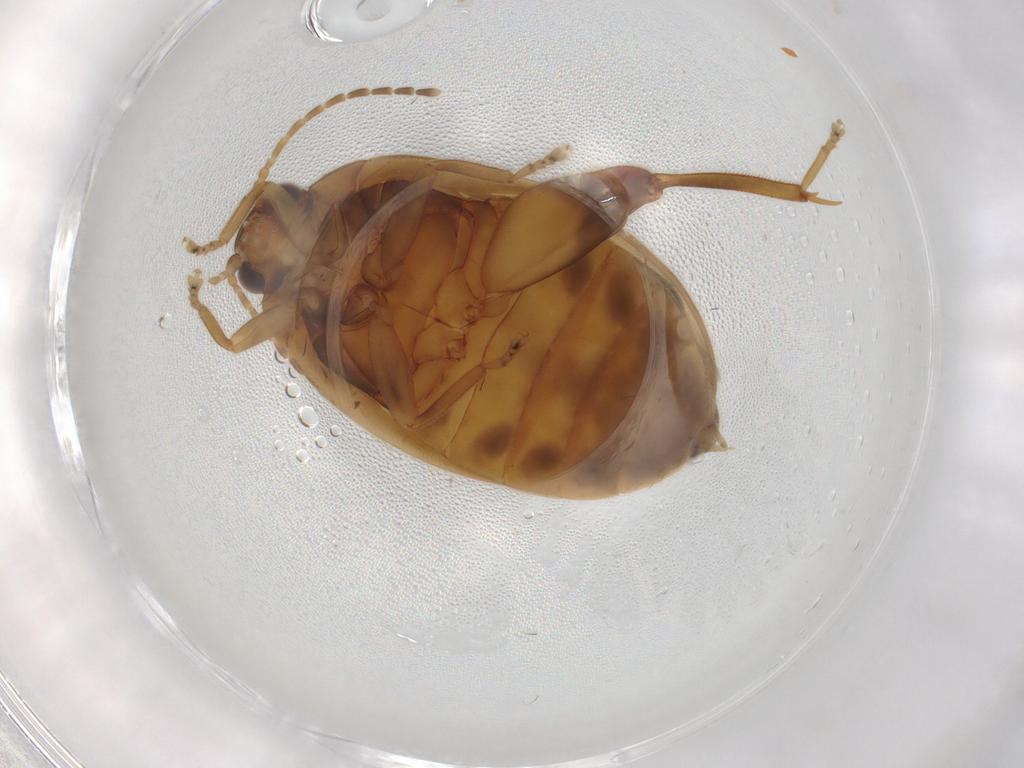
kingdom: Animalia
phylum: Arthropoda
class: Insecta
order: Coleoptera
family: Scirtidae
